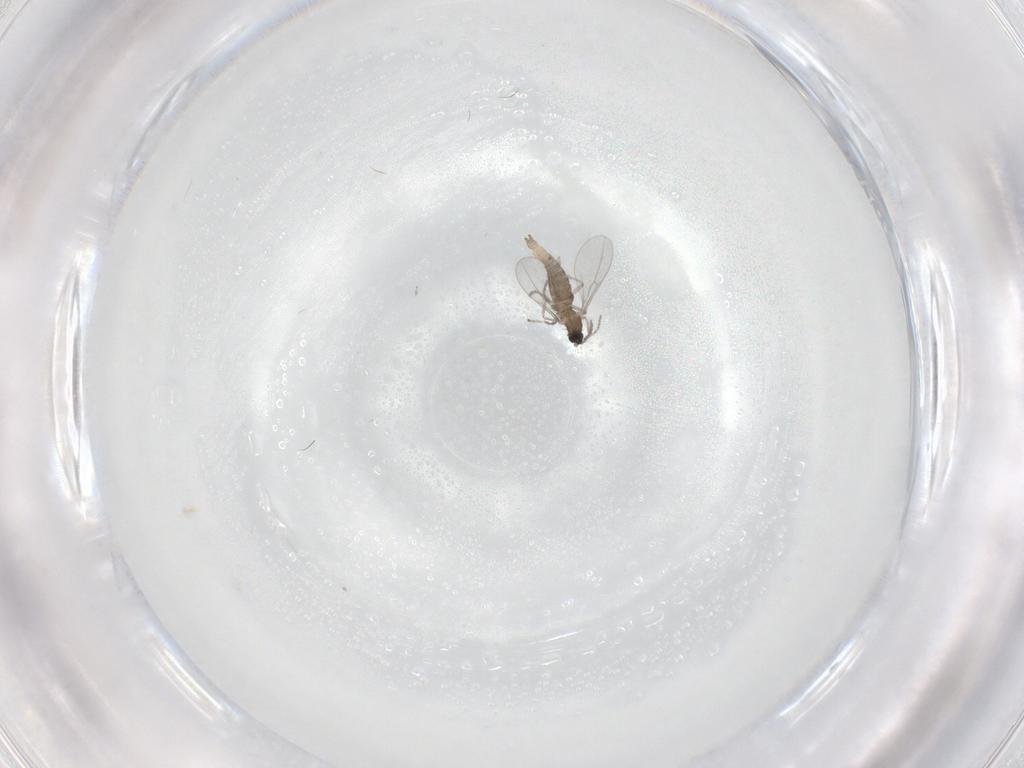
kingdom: Animalia
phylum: Arthropoda
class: Insecta
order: Diptera
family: Cecidomyiidae
